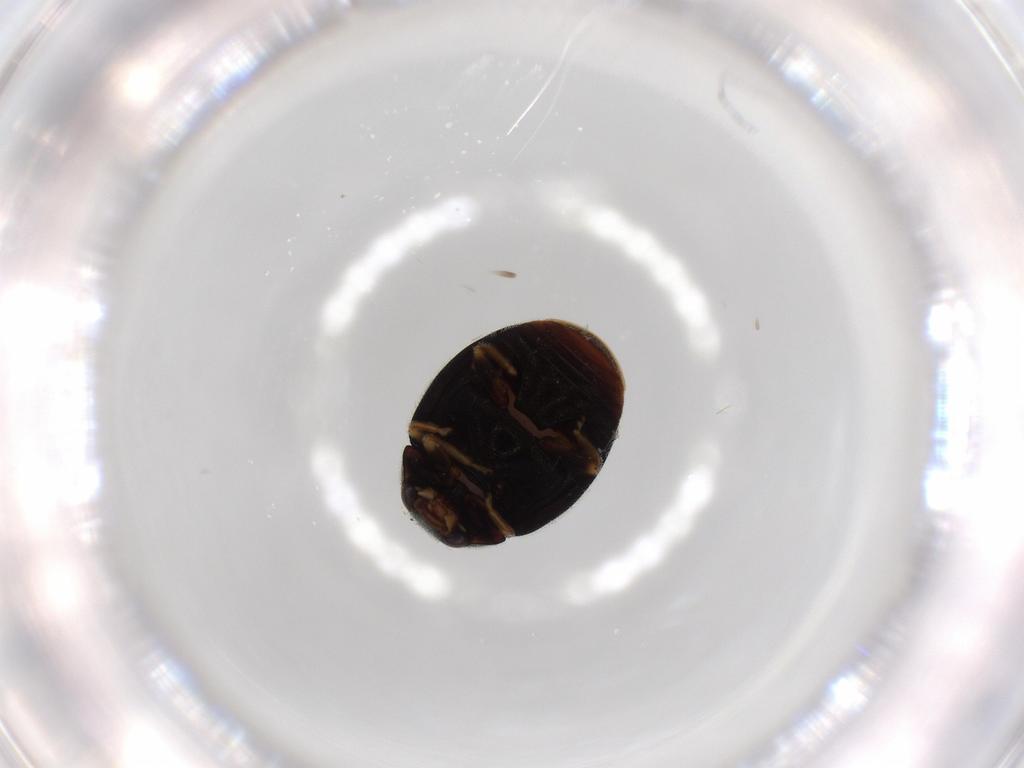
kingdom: Animalia
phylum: Arthropoda
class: Insecta
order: Coleoptera
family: Coccinellidae
